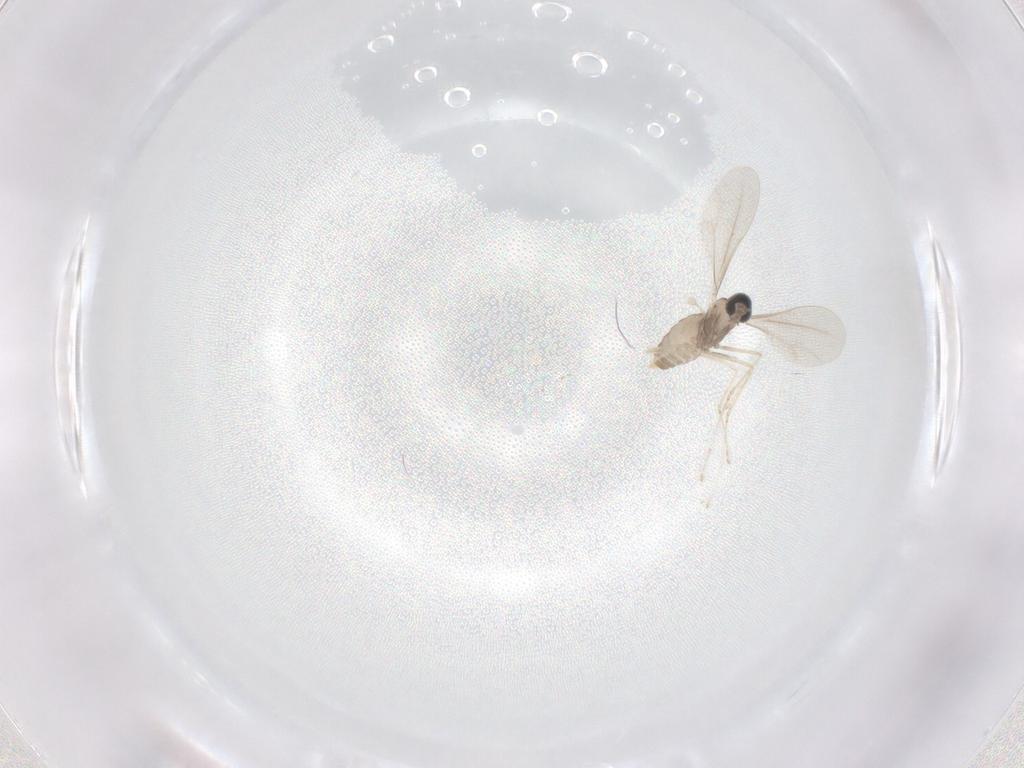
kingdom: Animalia
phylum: Arthropoda
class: Insecta
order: Diptera
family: Cecidomyiidae
